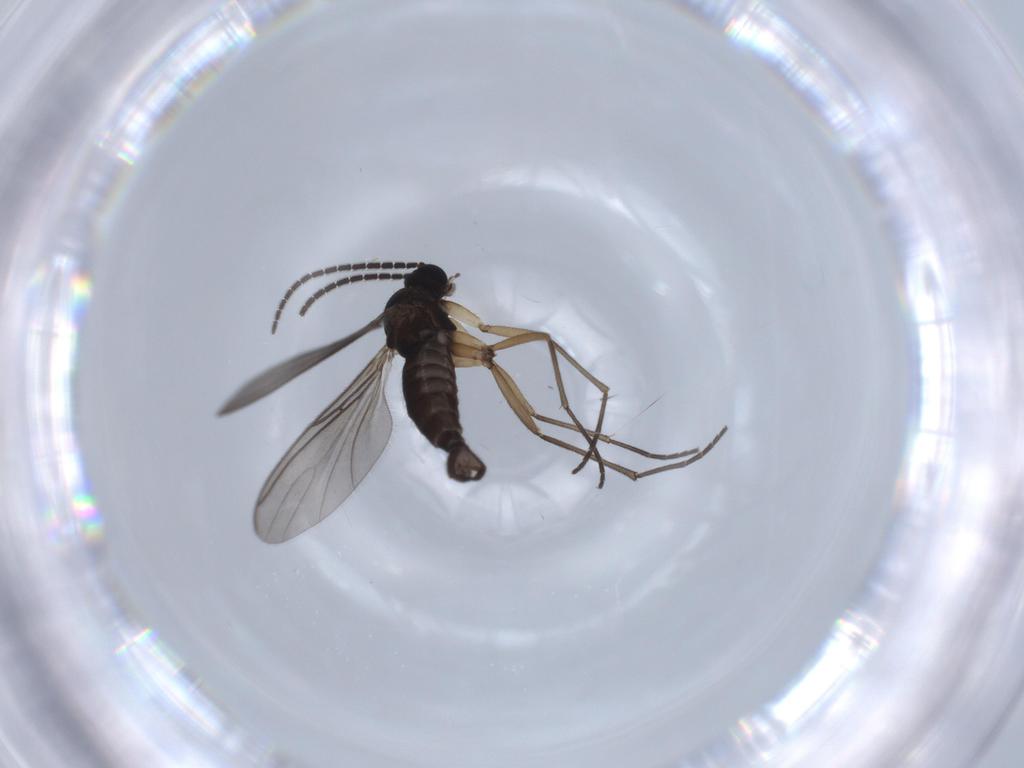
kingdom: Animalia
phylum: Arthropoda
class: Insecta
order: Diptera
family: Sciaridae
